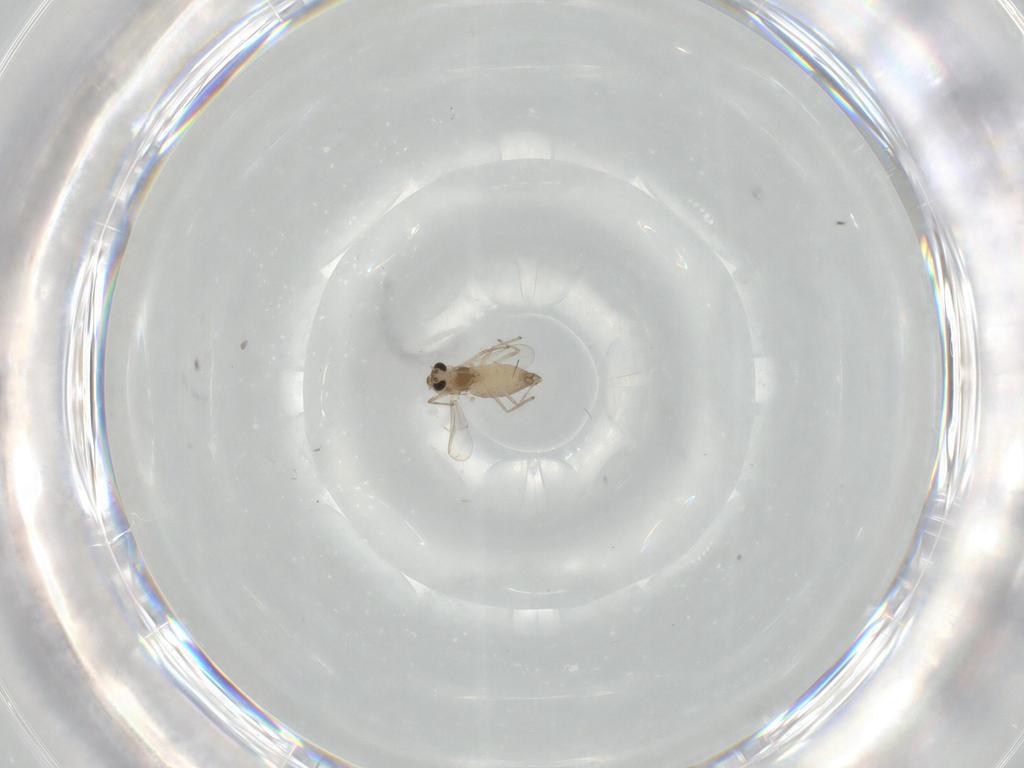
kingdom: Animalia
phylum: Arthropoda
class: Insecta
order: Diptera
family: Chironomidae
